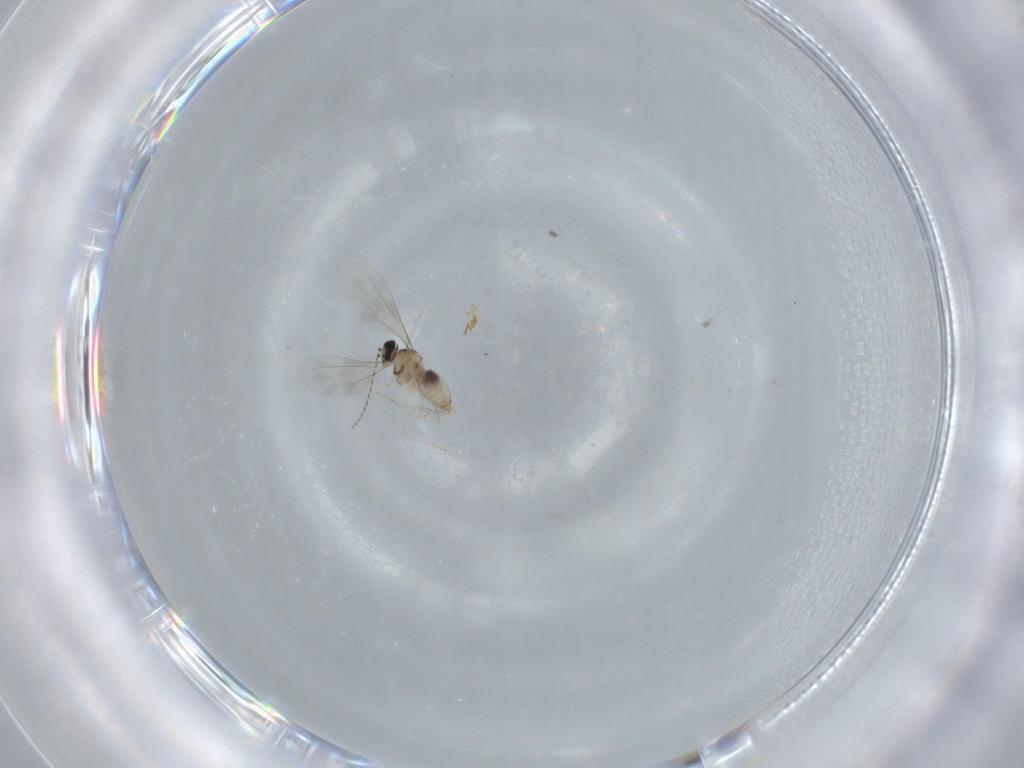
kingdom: Animalia
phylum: Arthropoda
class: Insecta
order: Diptera
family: Cecidomyiidae
